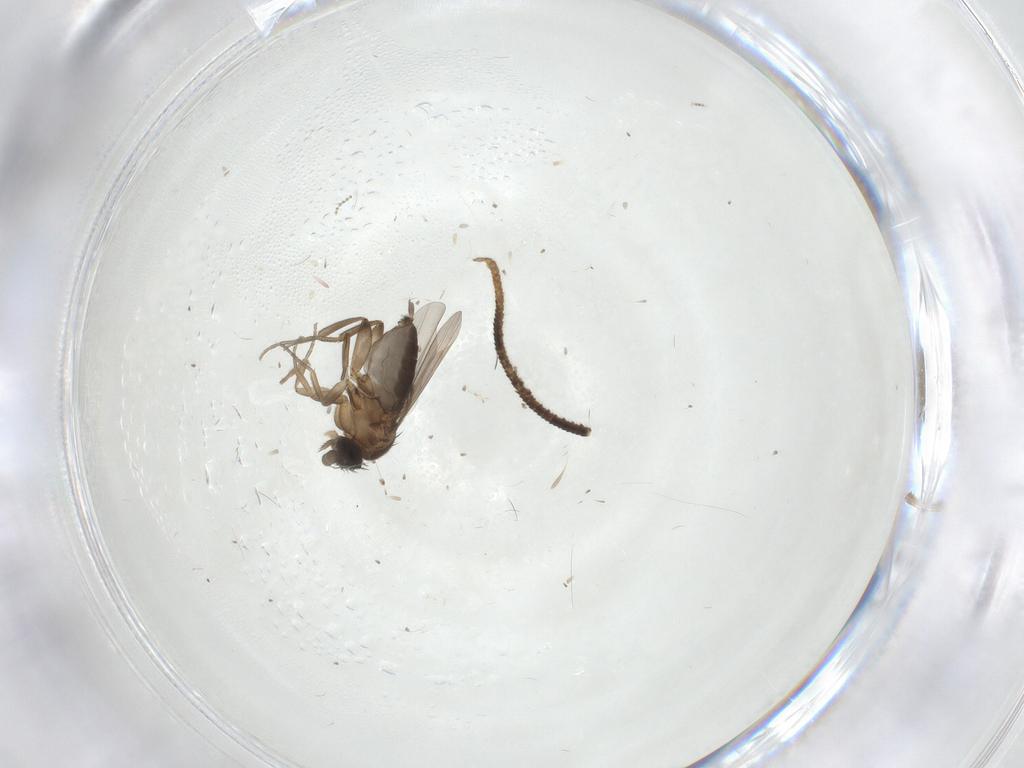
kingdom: Animalia
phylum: Arthropoda
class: Insecta
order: Diptera
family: Phoridae
